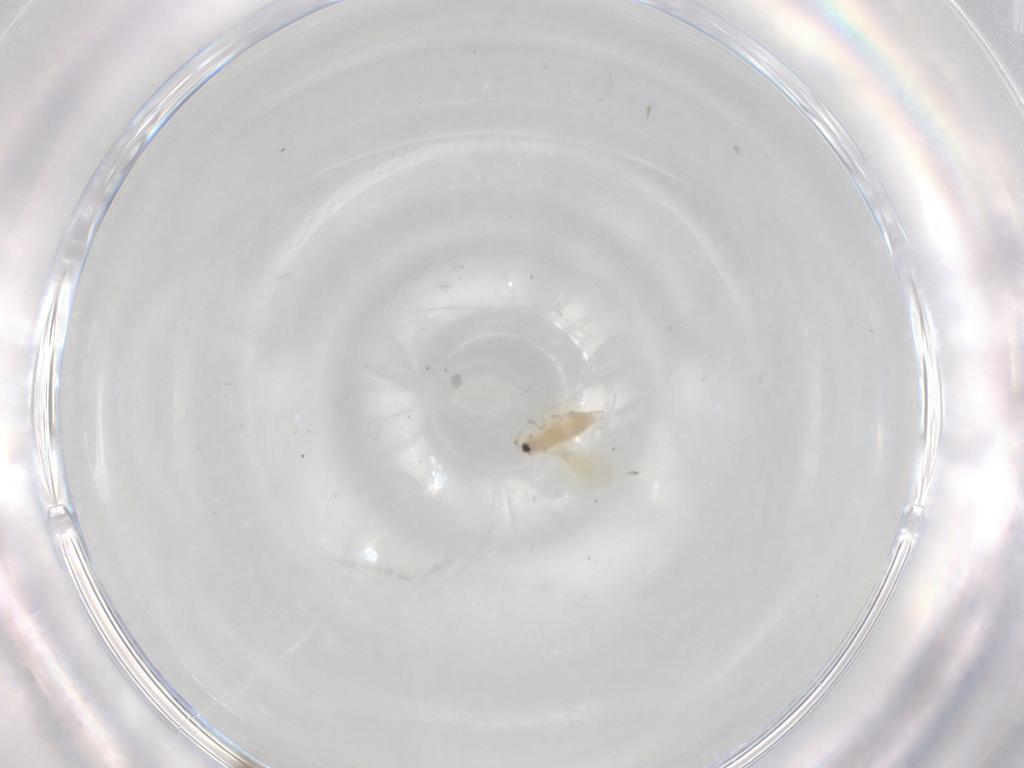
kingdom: Animalia
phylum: Arthropoda
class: Insecta
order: Hymenoptera
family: Aphelinidae
